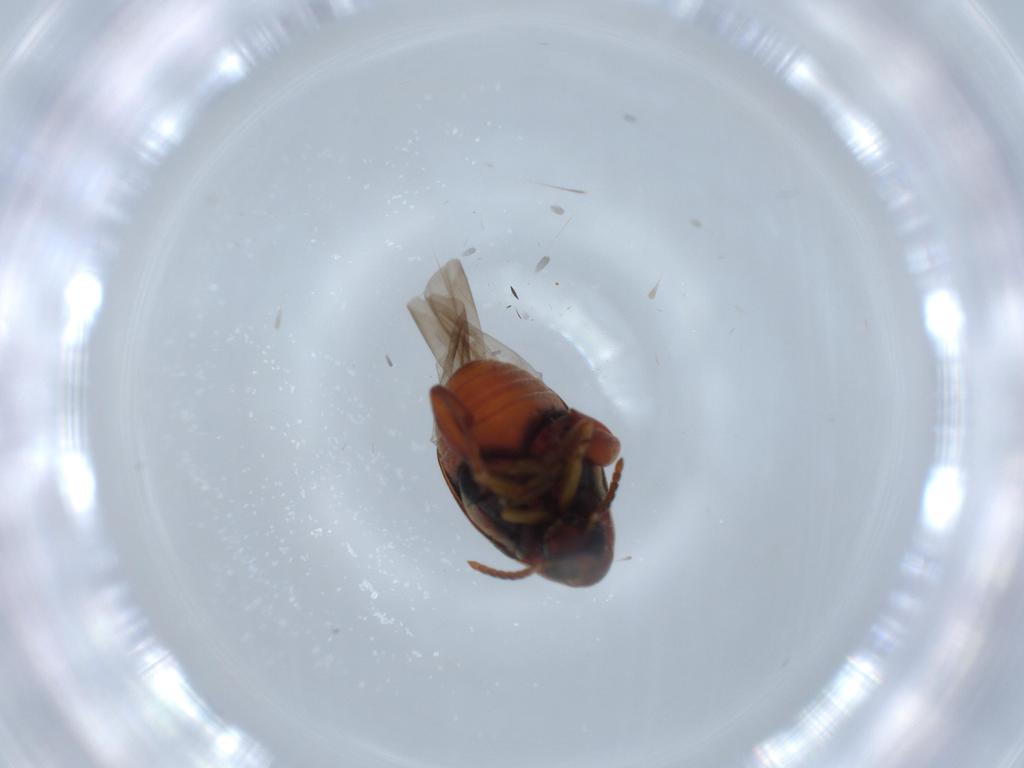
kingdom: Animalia
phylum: Arthropoda
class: Insecta
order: Coleoptera
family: Chrysomelidae
